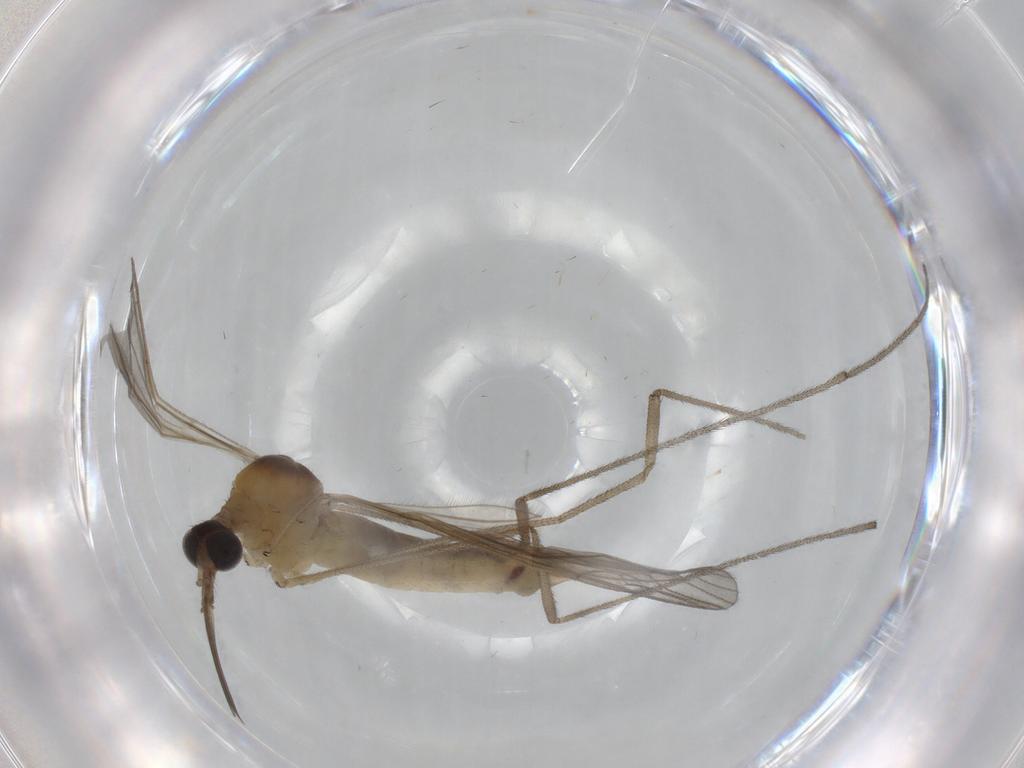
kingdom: Animalia
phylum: Arthropoda
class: Insecta
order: Diptera
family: Limoniidae
